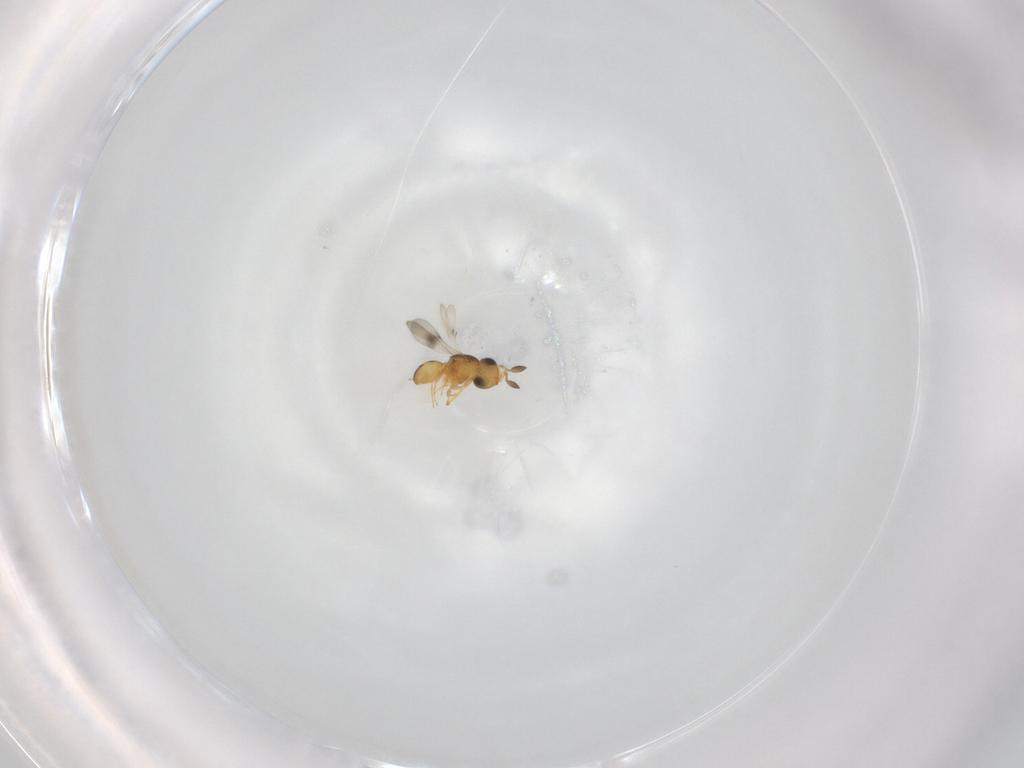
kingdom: Animalia
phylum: Arthropoda
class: Insecta
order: Hymenoptera
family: Scelionidae
